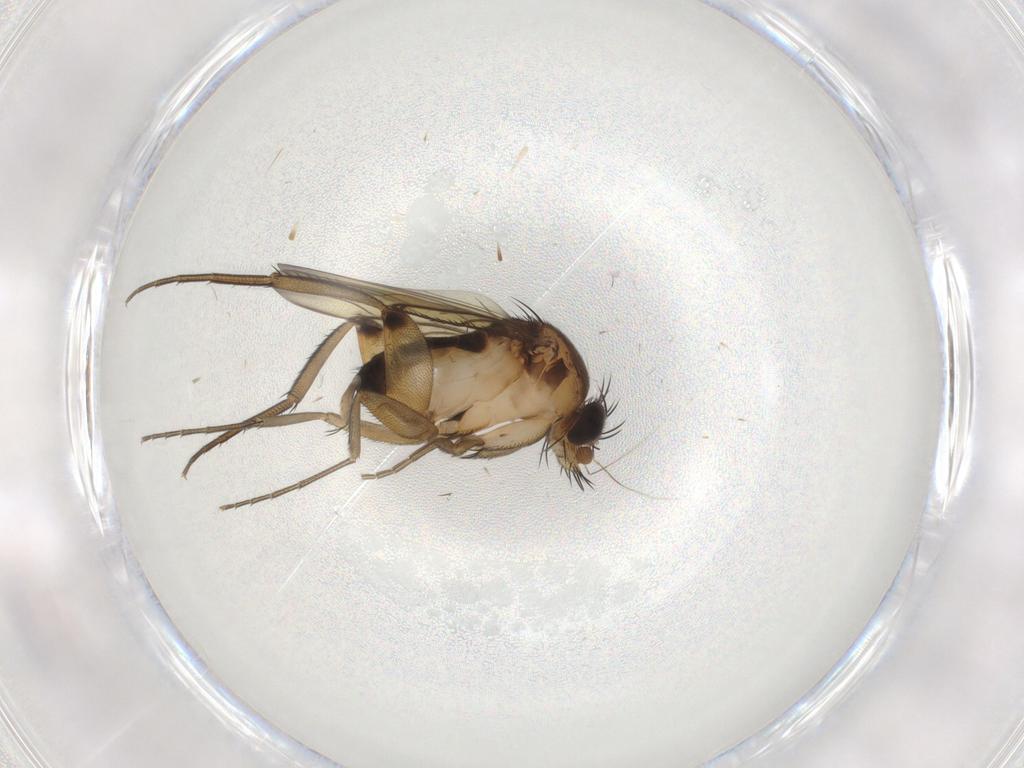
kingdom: Animalia
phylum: Arthropoda
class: Insecta
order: Diptera
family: Phoridae
